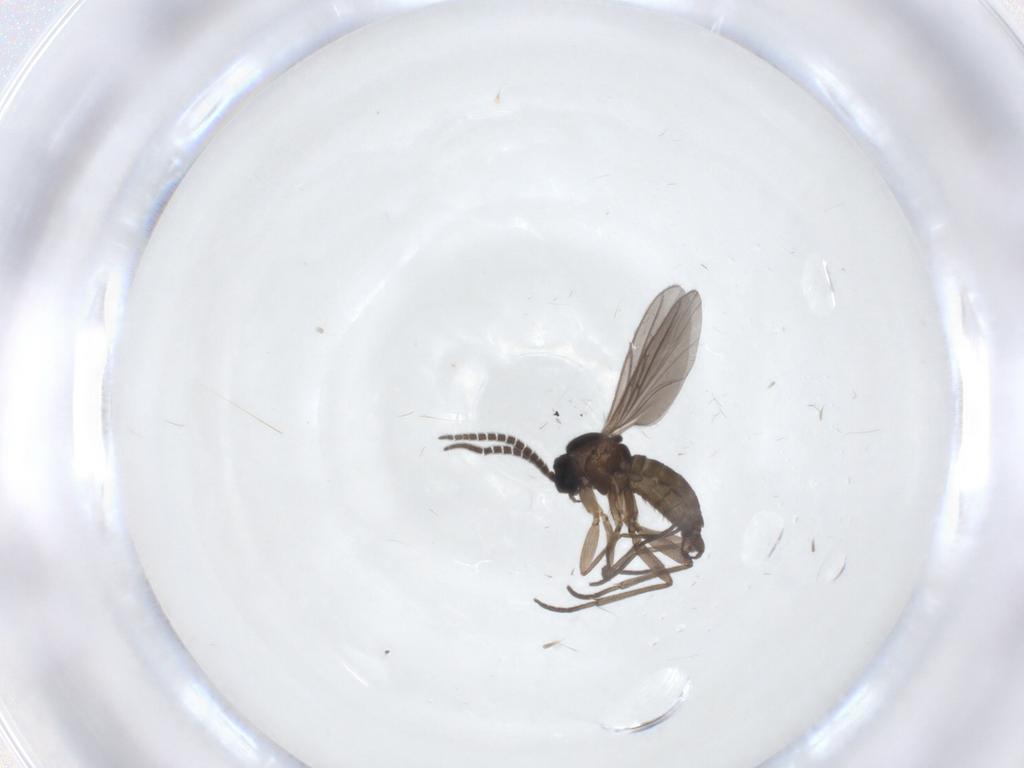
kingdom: Animalia
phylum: Arthropoda
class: Insecta
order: Diptera
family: Sciaridae
